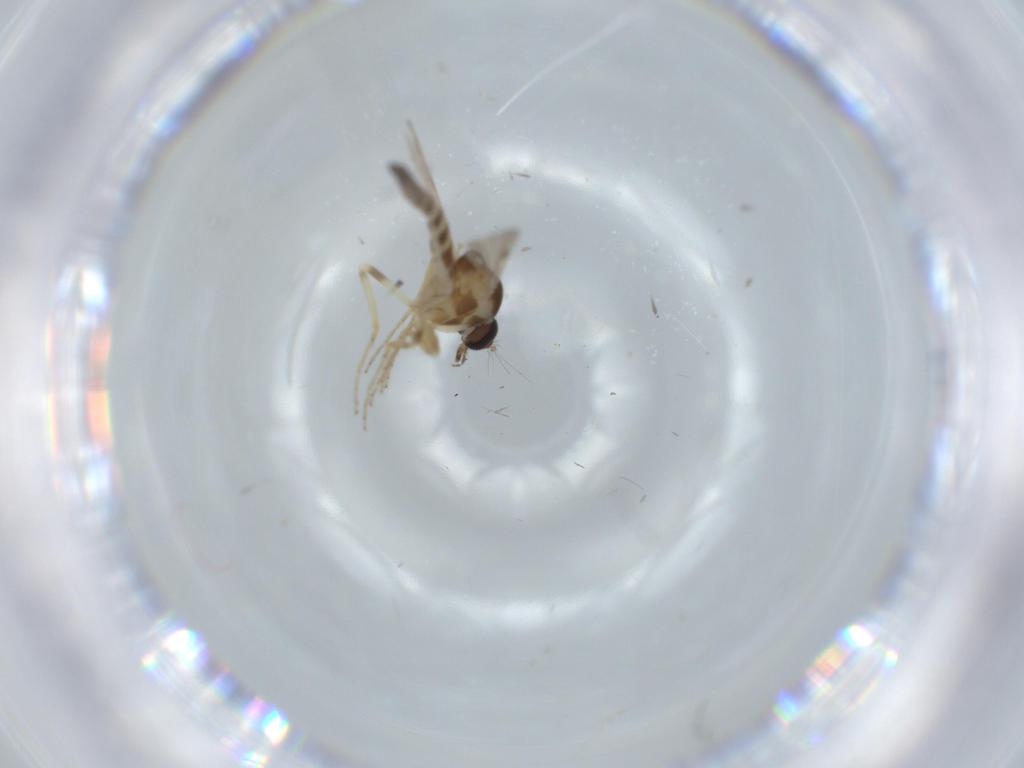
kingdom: Animalia
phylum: Arthropoda
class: Insecta
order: Diptera
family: Ceratopogonidae
